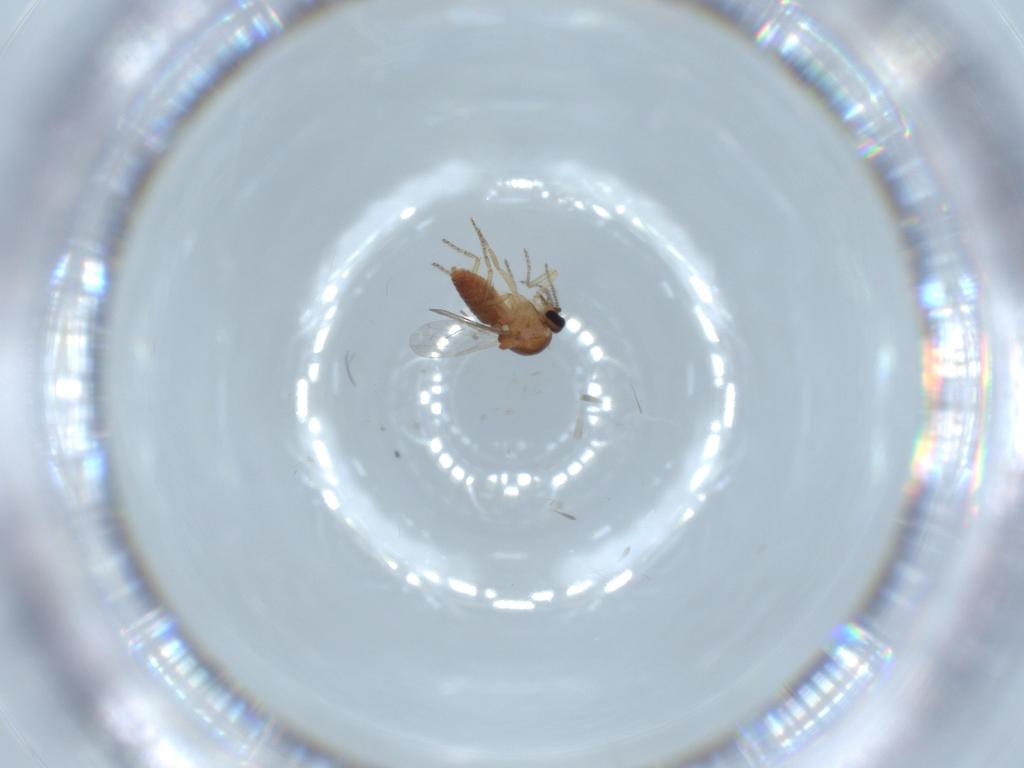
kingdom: Animalia
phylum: Arthropoda
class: Insecta
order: Diptera
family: Ceratopogonidae
